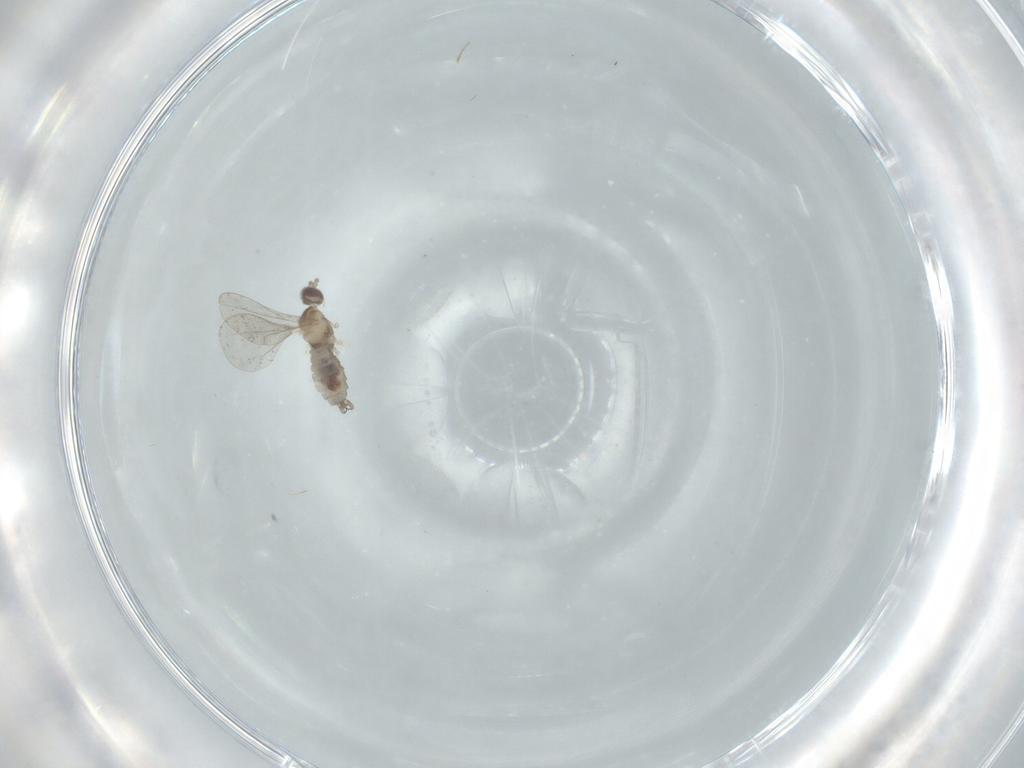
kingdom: Animalia
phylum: Arthropoda
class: Insecta
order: Diptera
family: Cecidomyiidae
